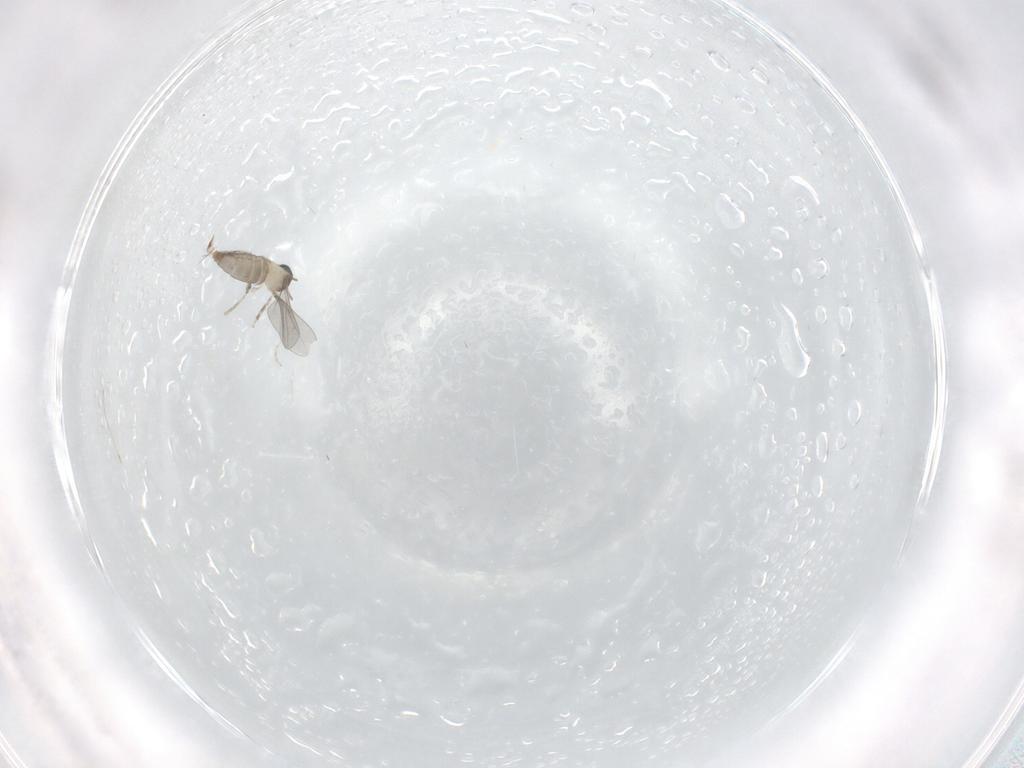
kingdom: Animalia
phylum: Arthropoda
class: Insecta
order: Diptera
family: Cecidomyiidae
